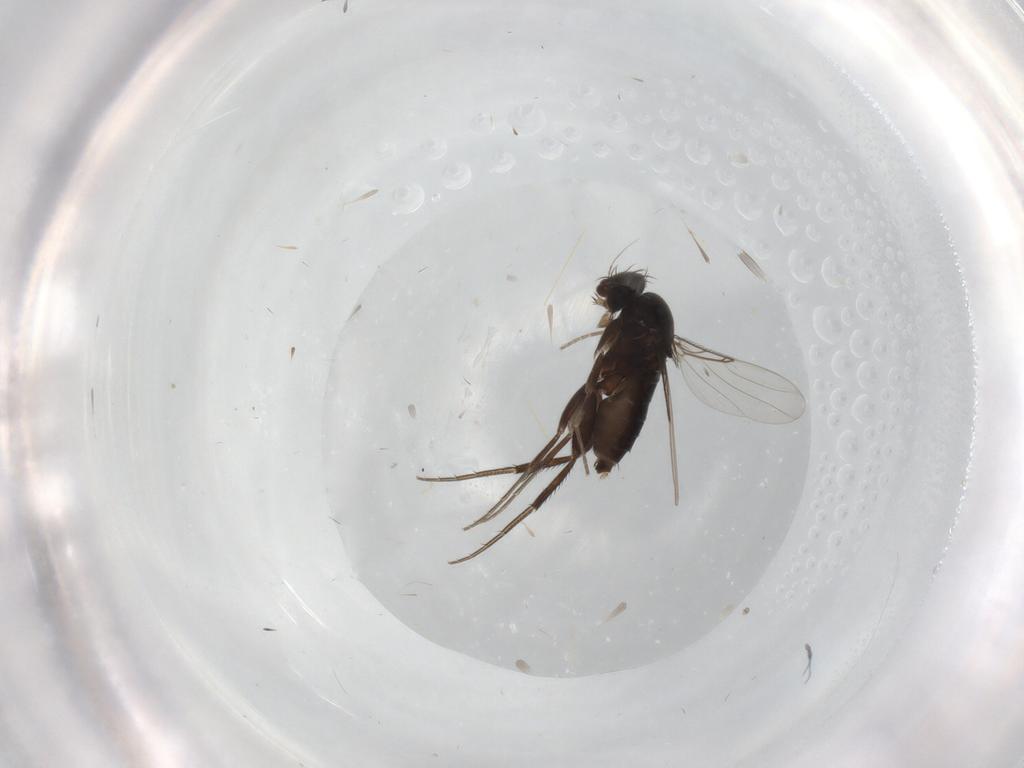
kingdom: Animalia
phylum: Arthropoda
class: Insecta
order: Diptera
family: Phoridae
